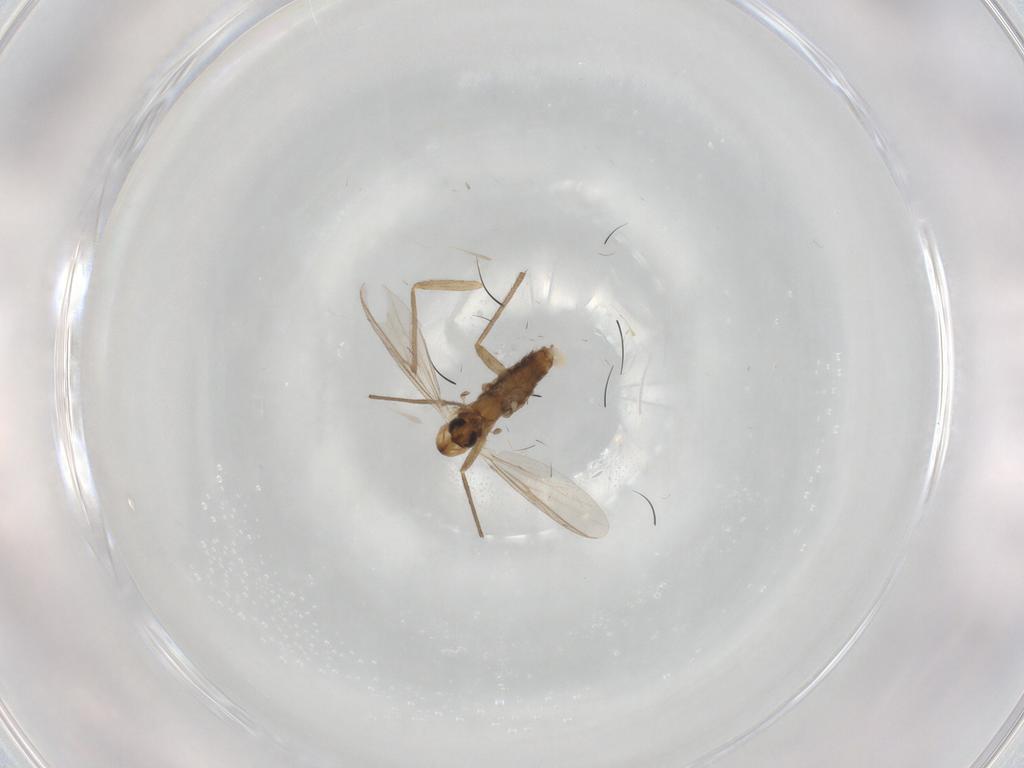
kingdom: Animalia
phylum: Arthropoda
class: Insecta
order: Diptera
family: Chironomidae
